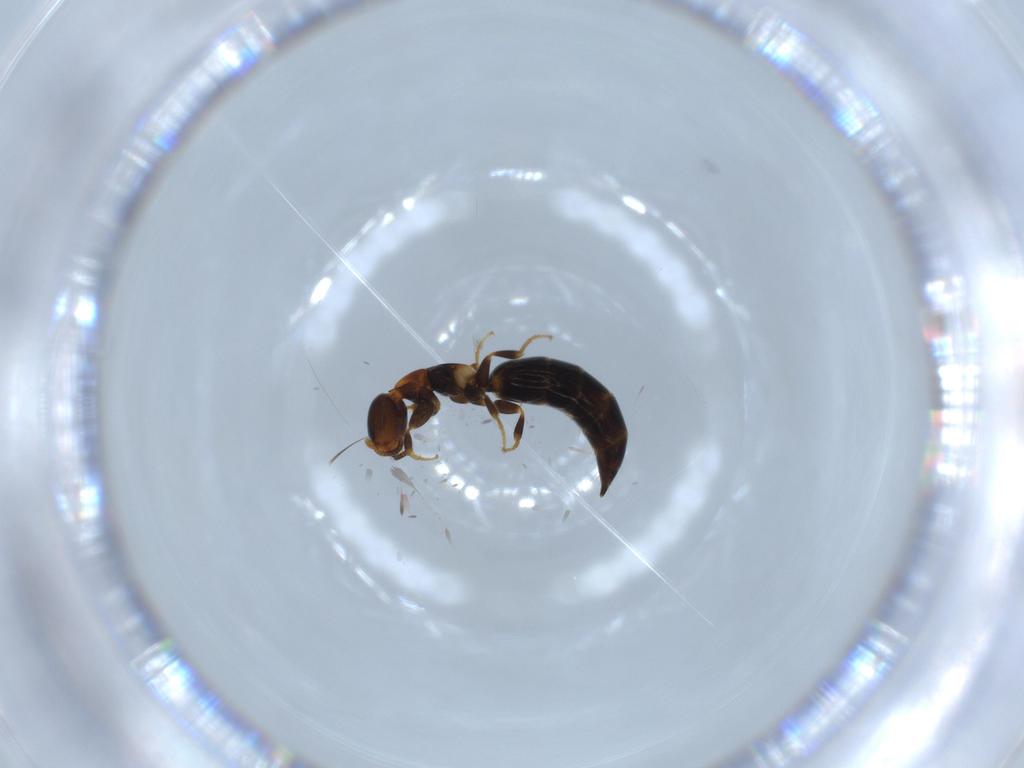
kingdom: Animalia
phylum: Arthropoda
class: Insecta
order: Hymenoptera
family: Bethylidae
